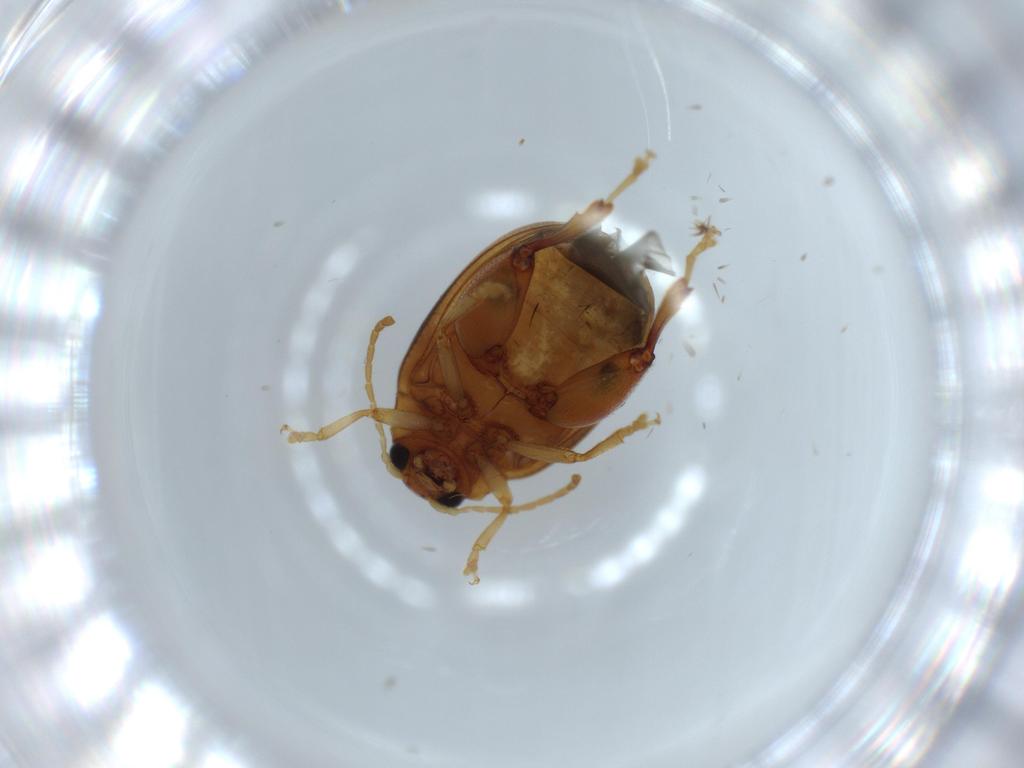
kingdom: Animalia
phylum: Arthropoda
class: Insecta
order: Coleoptera
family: Chrysomelidae
